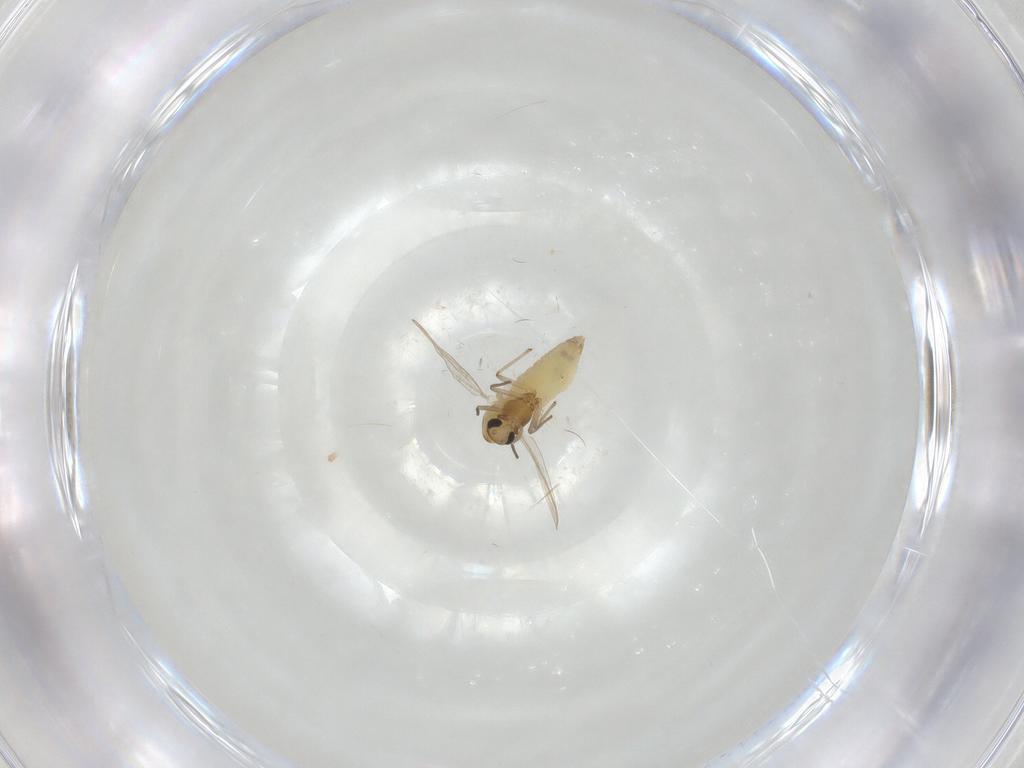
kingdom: Animalia
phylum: Arthropoda
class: Insecta
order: Diptera
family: Chironomidae
